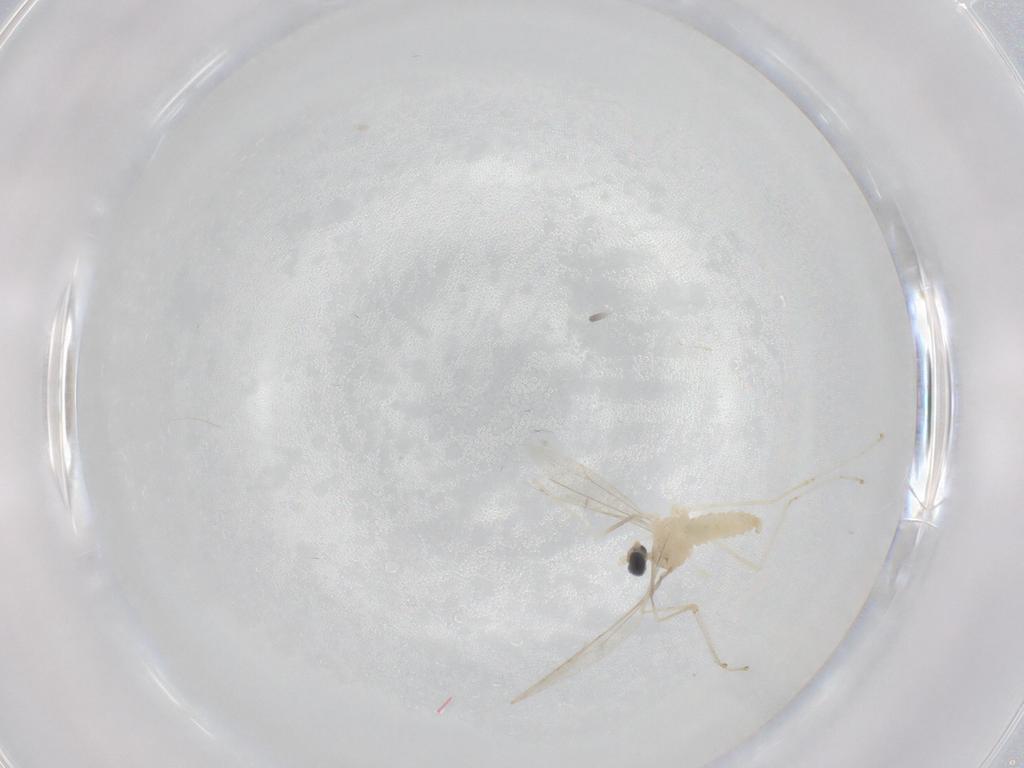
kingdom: Animalia
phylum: Arthropoda
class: Insecta
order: Diptera
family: Cecidomyiidae
